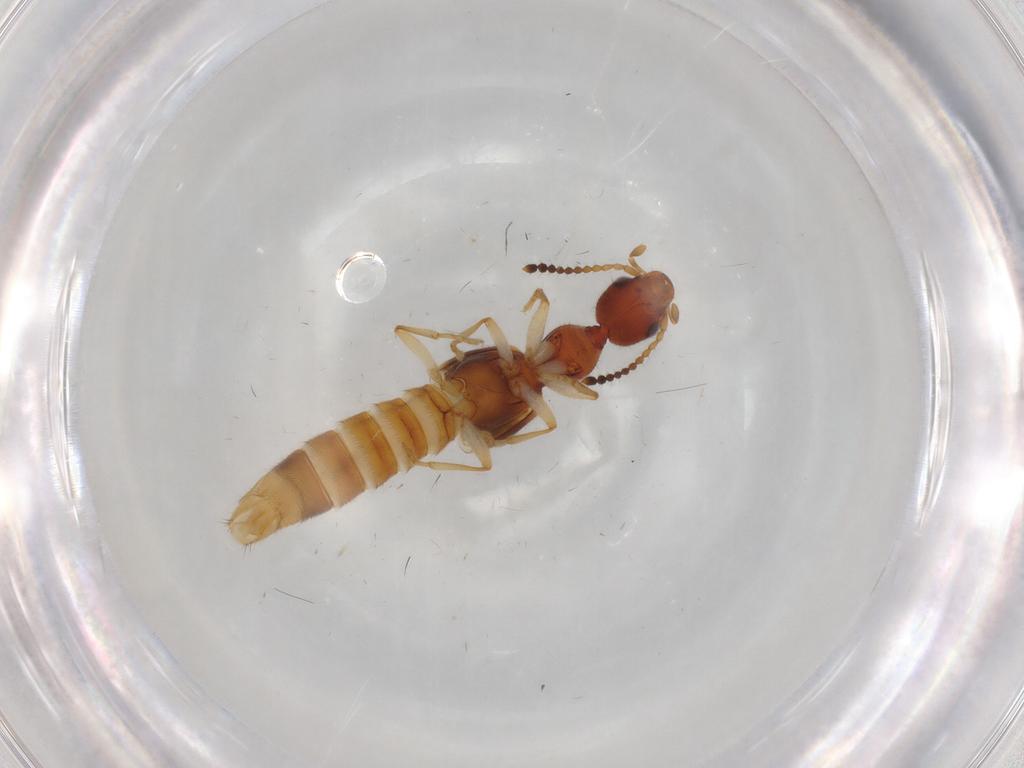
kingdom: Animalia
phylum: Arthropoda
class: Insecta
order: Coleoptera
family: Staphylinidae
